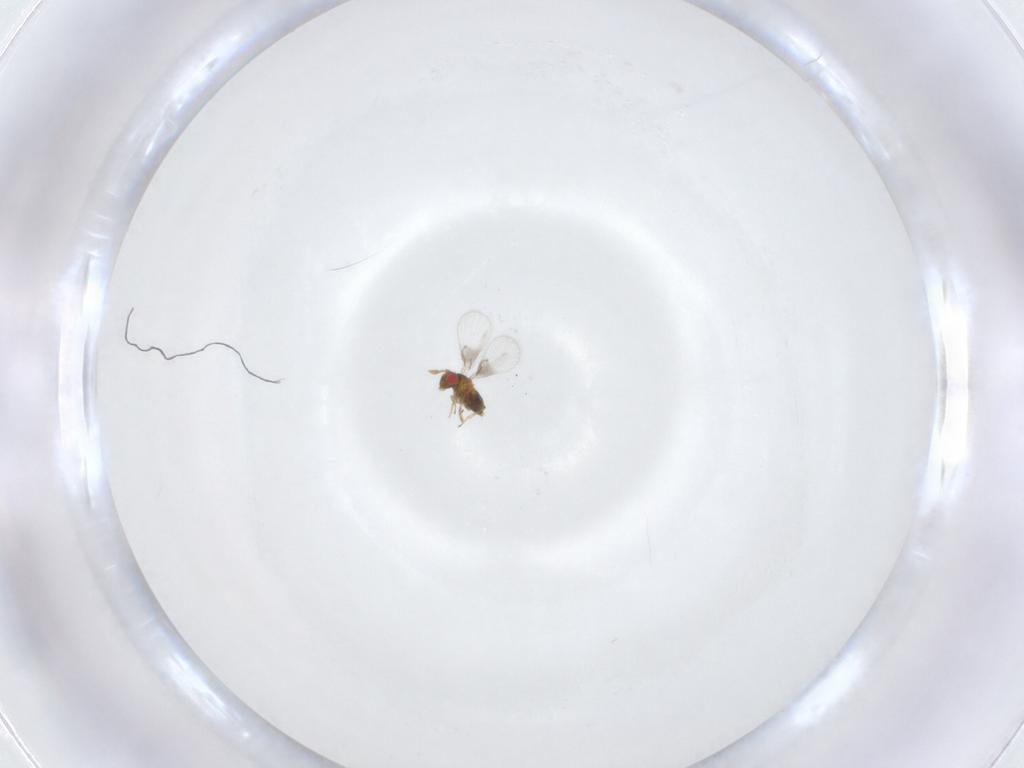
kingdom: Animalia
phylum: Arthropoda
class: Insecta
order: Hymenoptera
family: Trichogrammatidae
